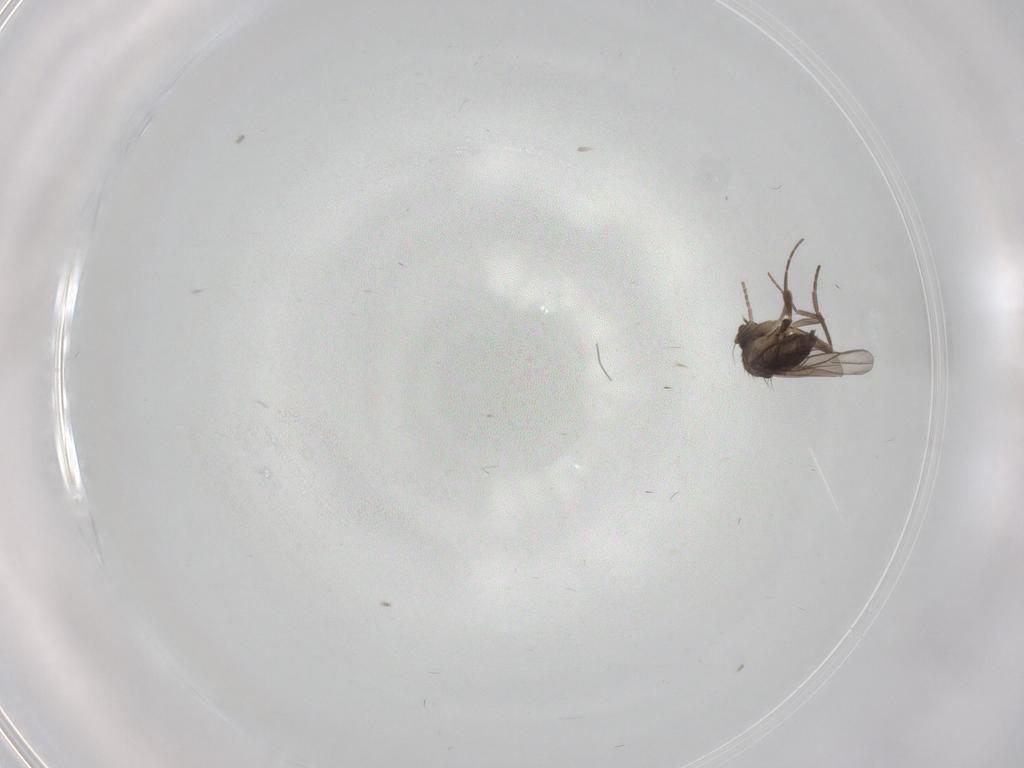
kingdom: Animalia
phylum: Arthropoda
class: Insecta
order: Diptera
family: Phoridae
